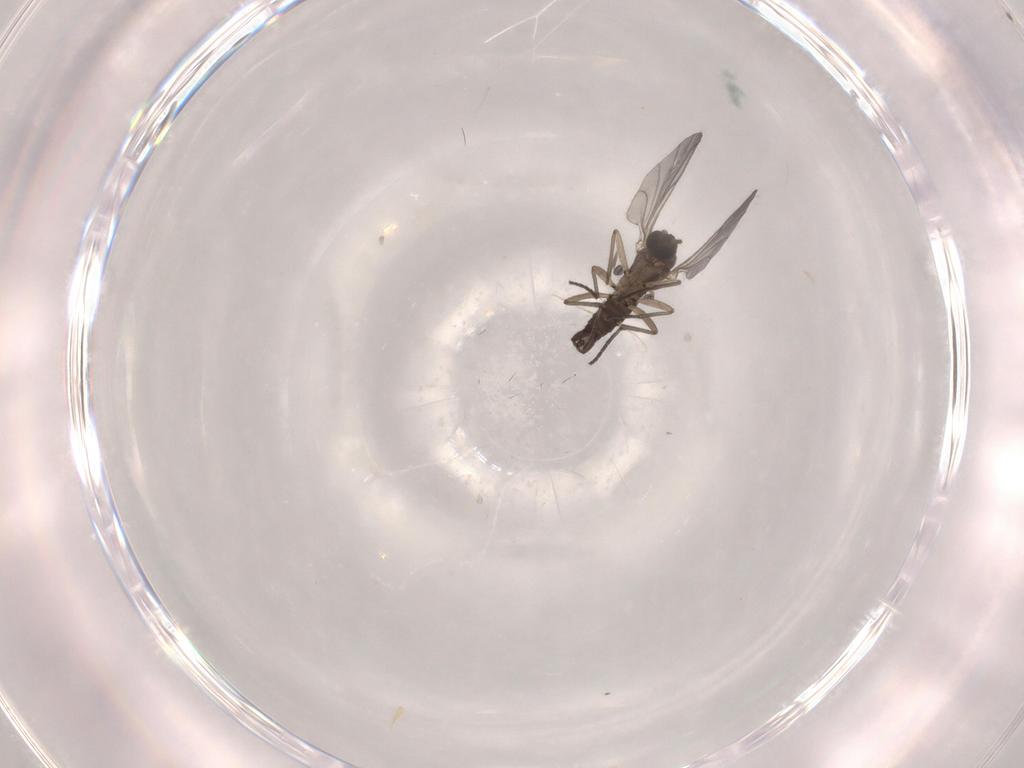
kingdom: Animalia
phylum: Arthropoda
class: Insecta
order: Diptera
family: Sciaridae
